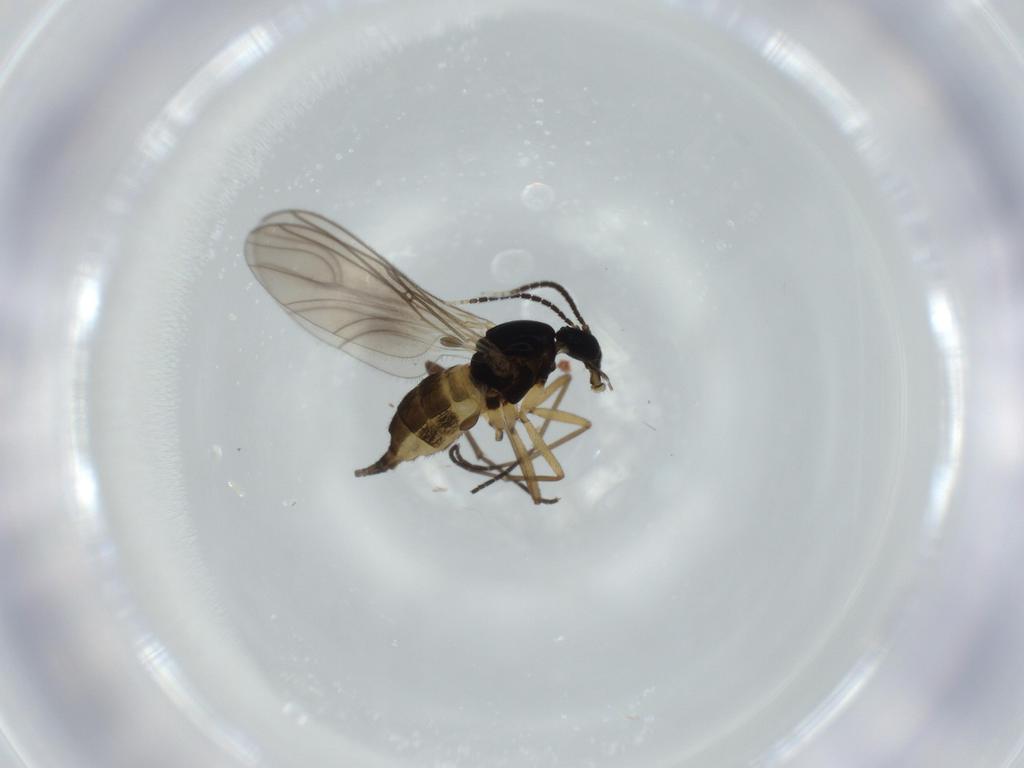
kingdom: Animalia
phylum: Arthropoda
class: Insecta
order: Diptera
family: Sciaridae
